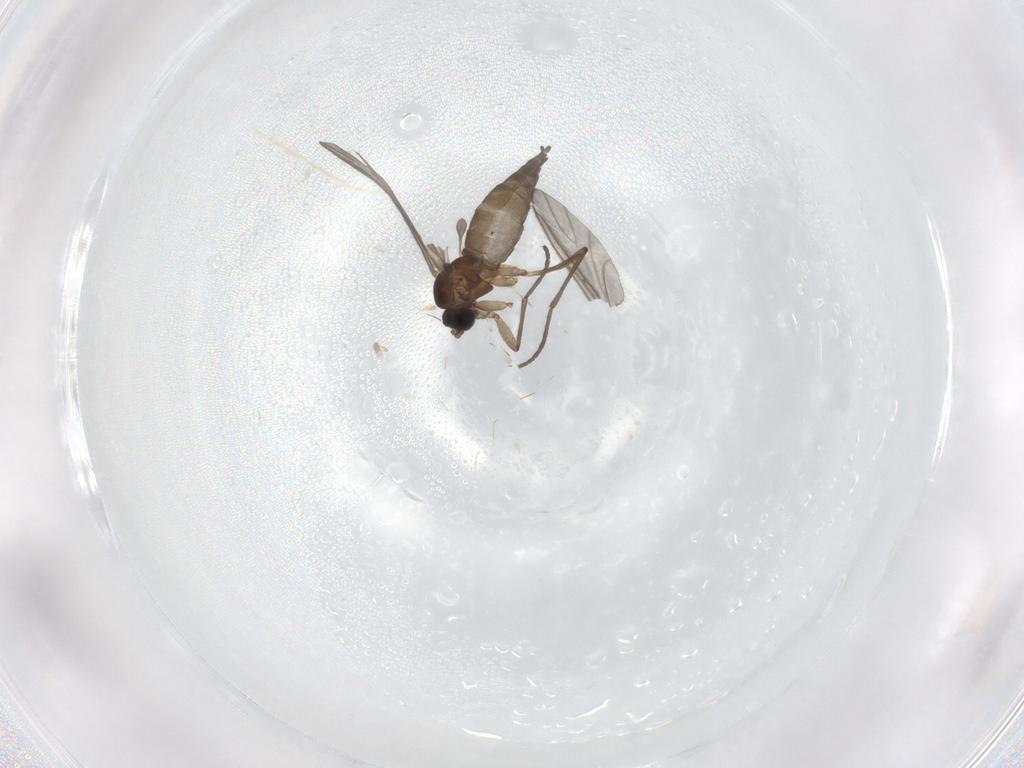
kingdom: Animalia
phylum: Arthropoda
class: Insecta
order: Diptera
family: Sciaridae
